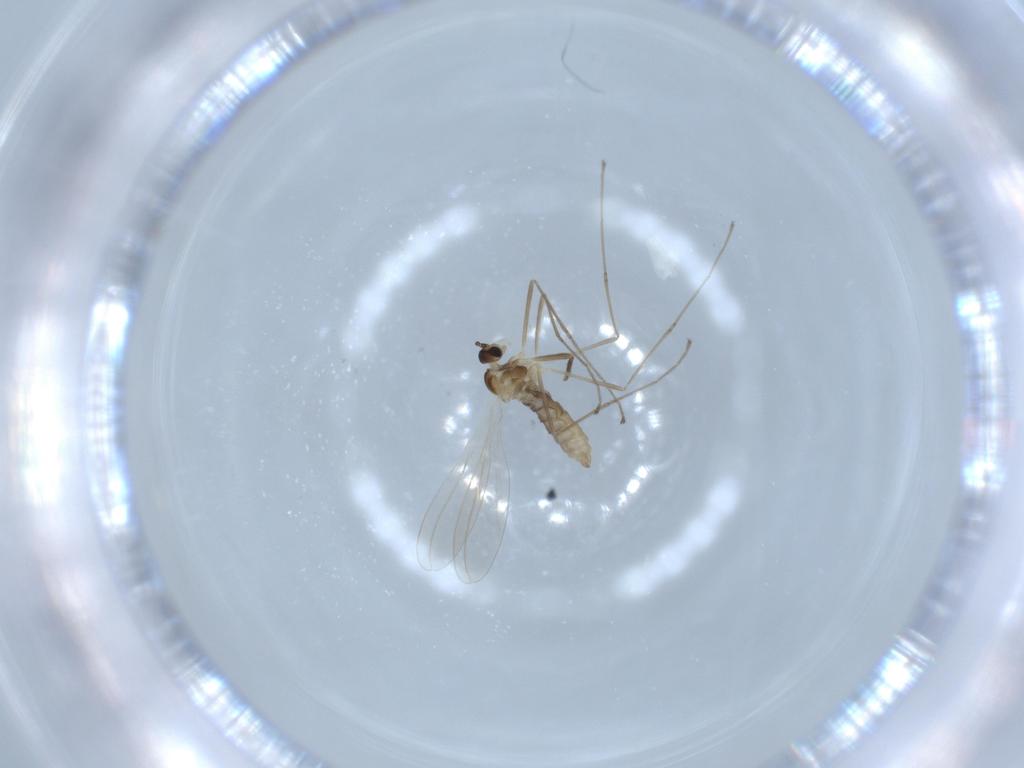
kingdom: Animalia
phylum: Arthropoda
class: Insecta
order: Diptera
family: Cecidomyiidae
